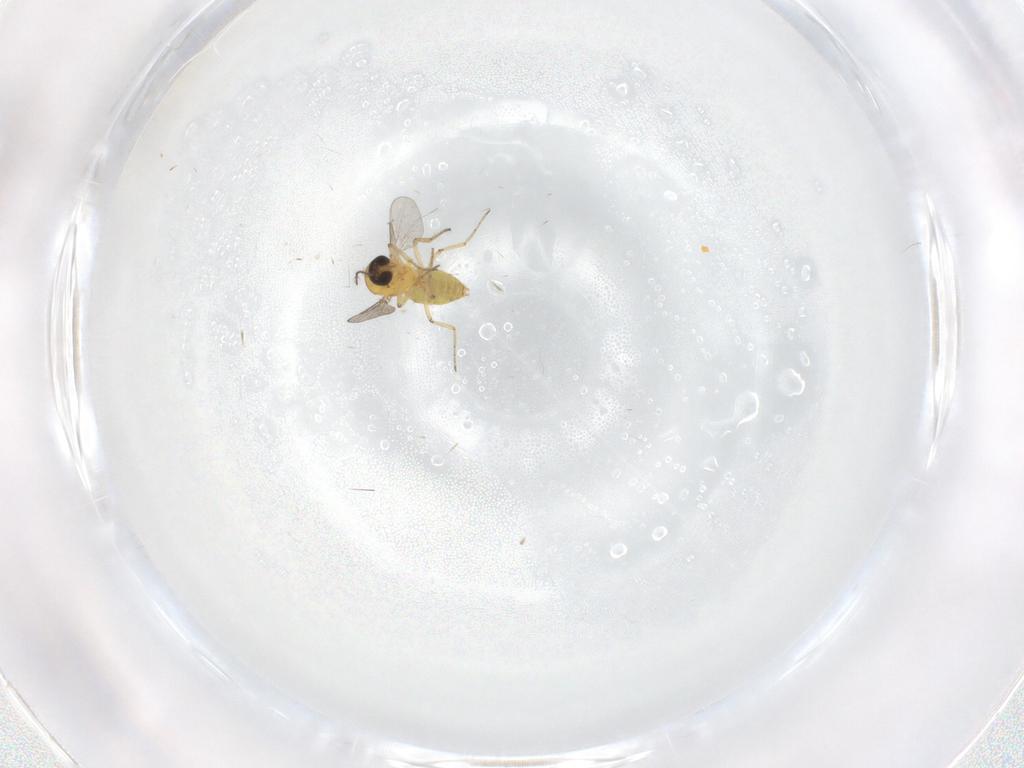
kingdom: Animalia
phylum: Arthropoda
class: Insecta
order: Diptera
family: Ceratopogonidae
